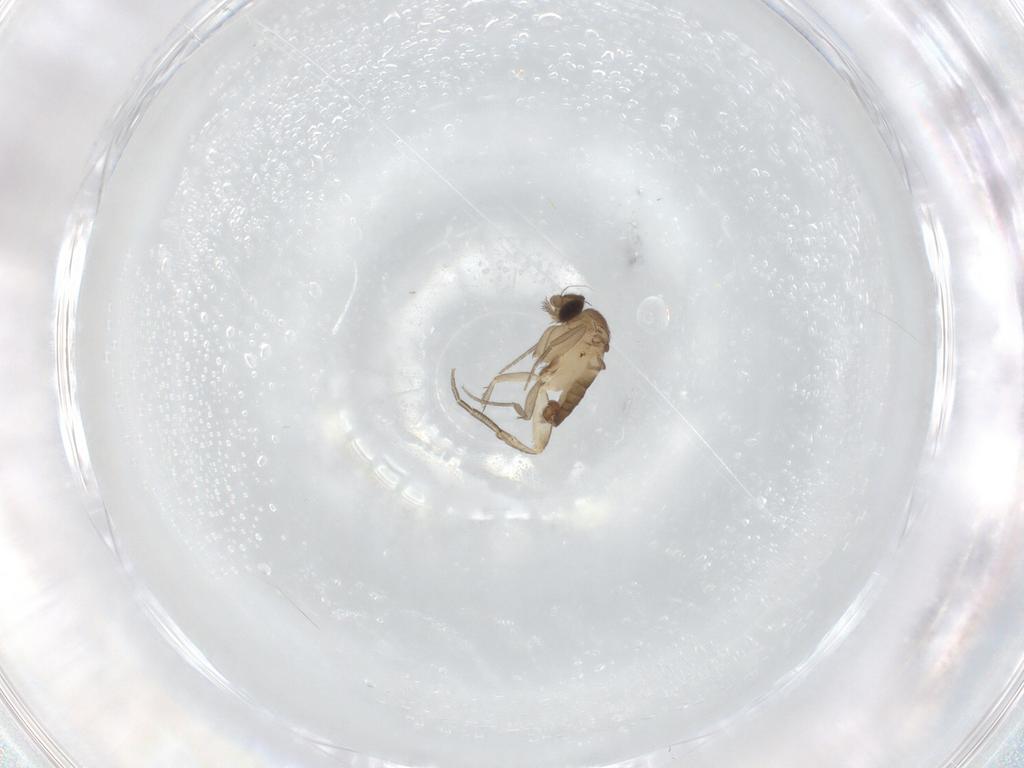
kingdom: Animalia
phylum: Arthropoda
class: Insecta
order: Diptera
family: Phoridae
